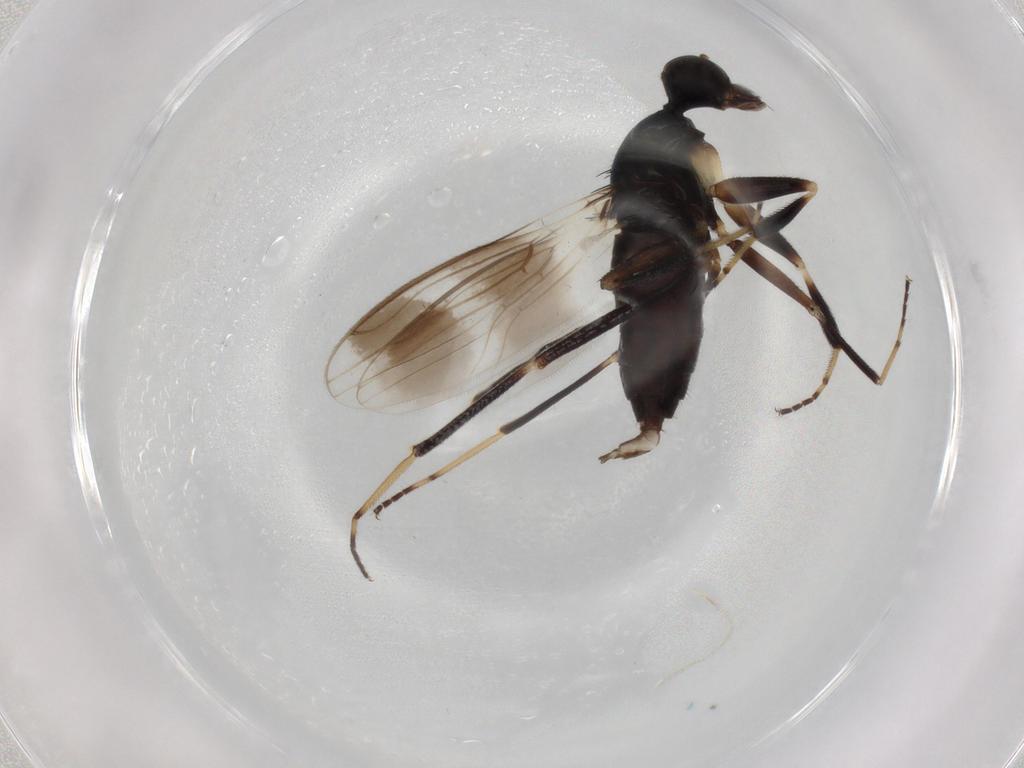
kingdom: Animalia
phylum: Arthropoda
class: Insecta
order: Diptera
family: Hybotidae
